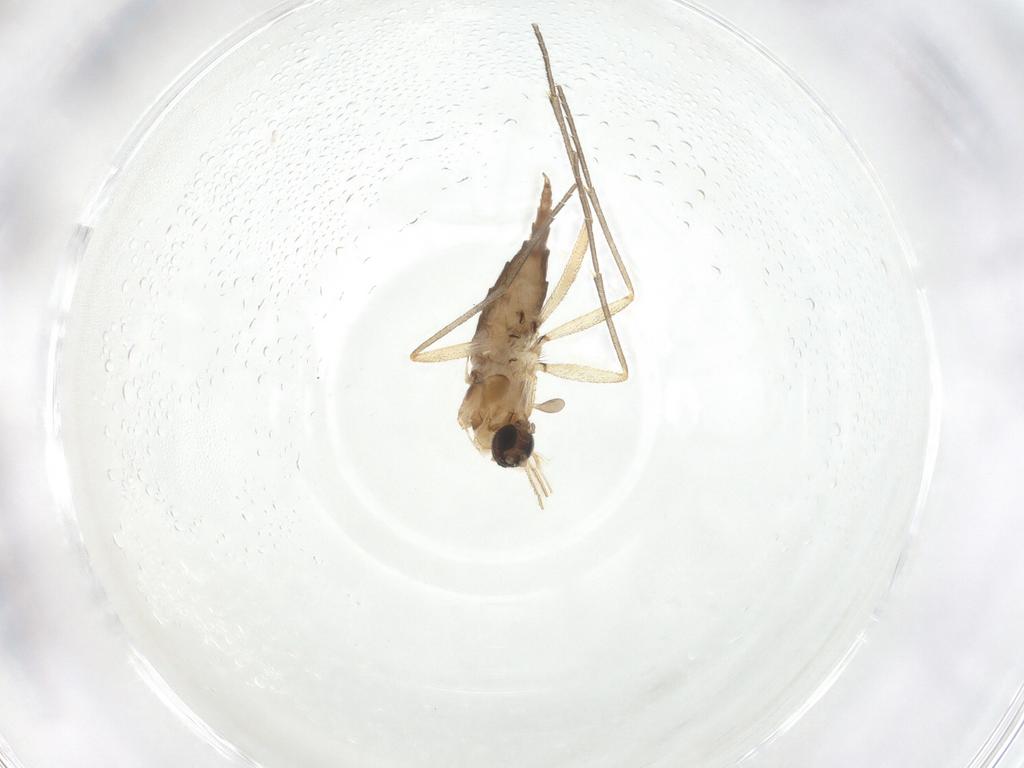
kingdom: Animalia
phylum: Arthropoda
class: Insecta
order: Diptera
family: Sciaridae
